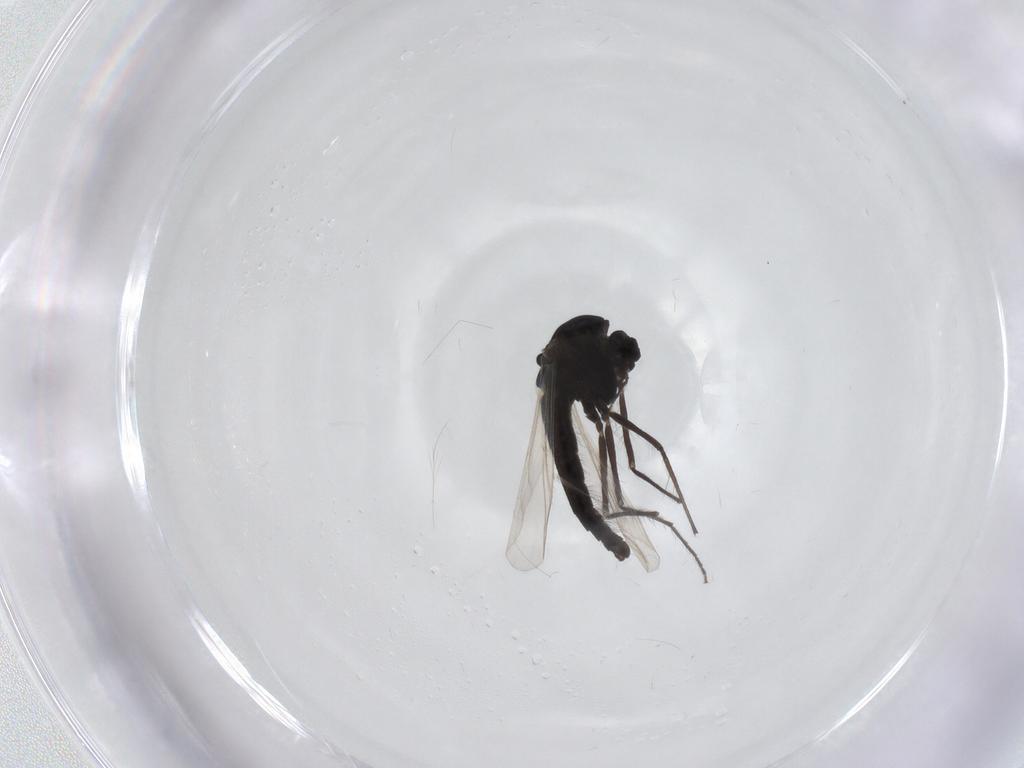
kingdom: Animalia
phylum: Arthropoda
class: Insecta
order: Diptera
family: Chironomidae
